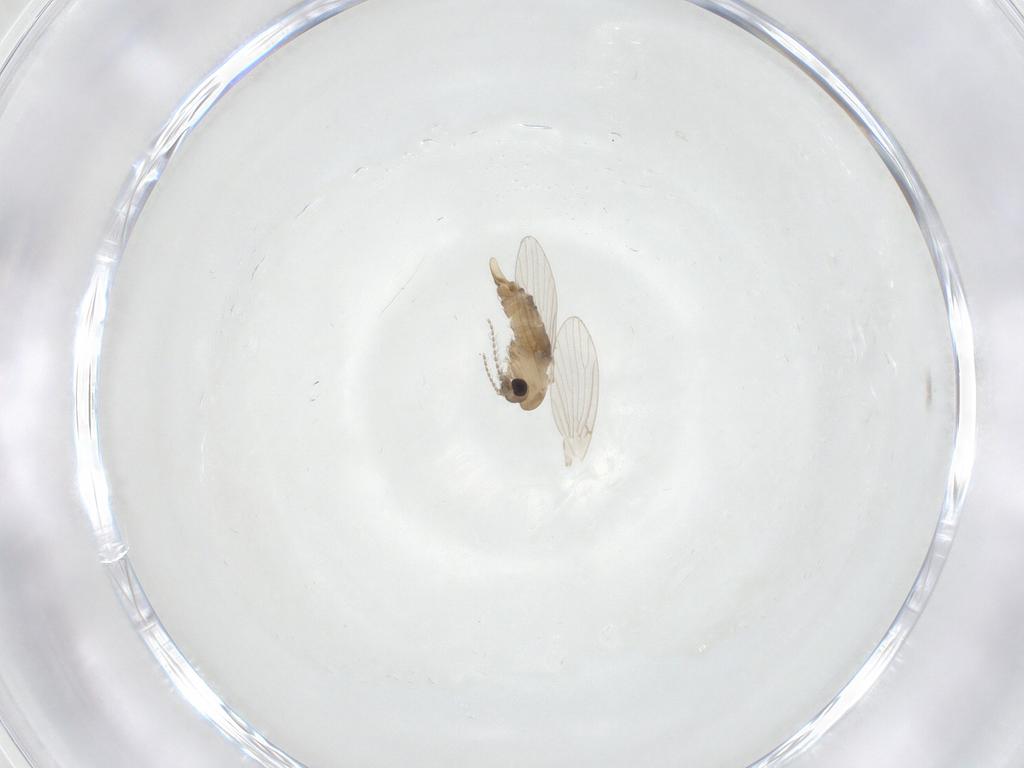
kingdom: Animalia
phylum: Arthropoda
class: Insecta
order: Diptera
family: Psychodidae
